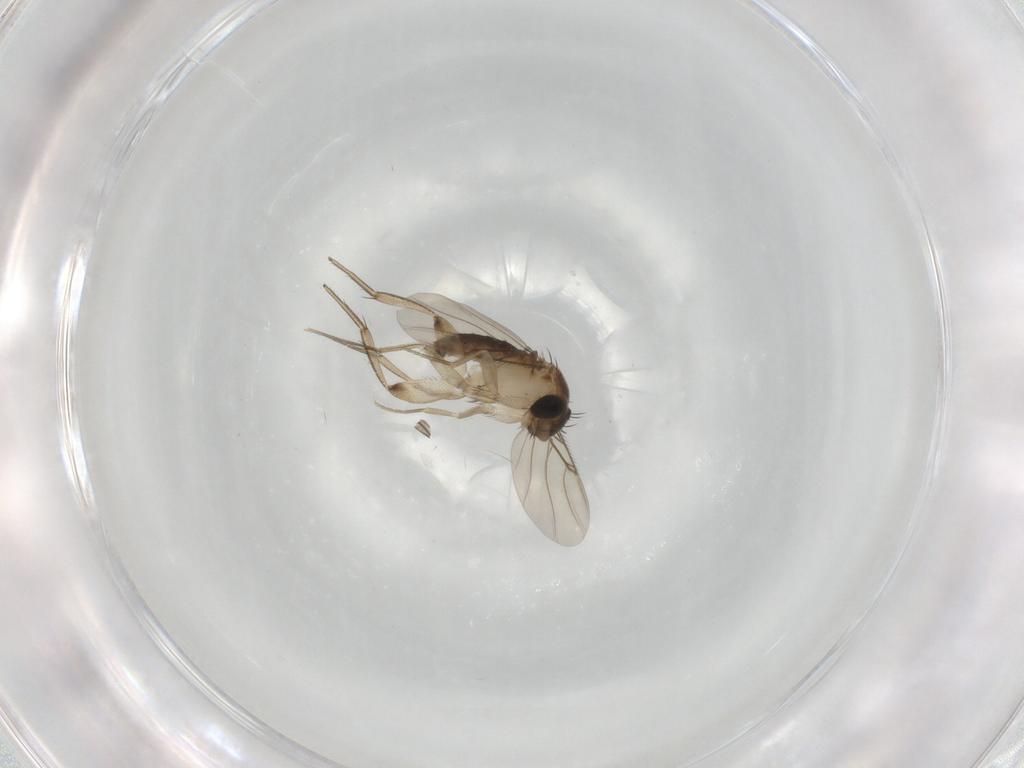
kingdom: Animalia
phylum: Arthropoda
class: Insecta
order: Diptera
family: Phoridae
